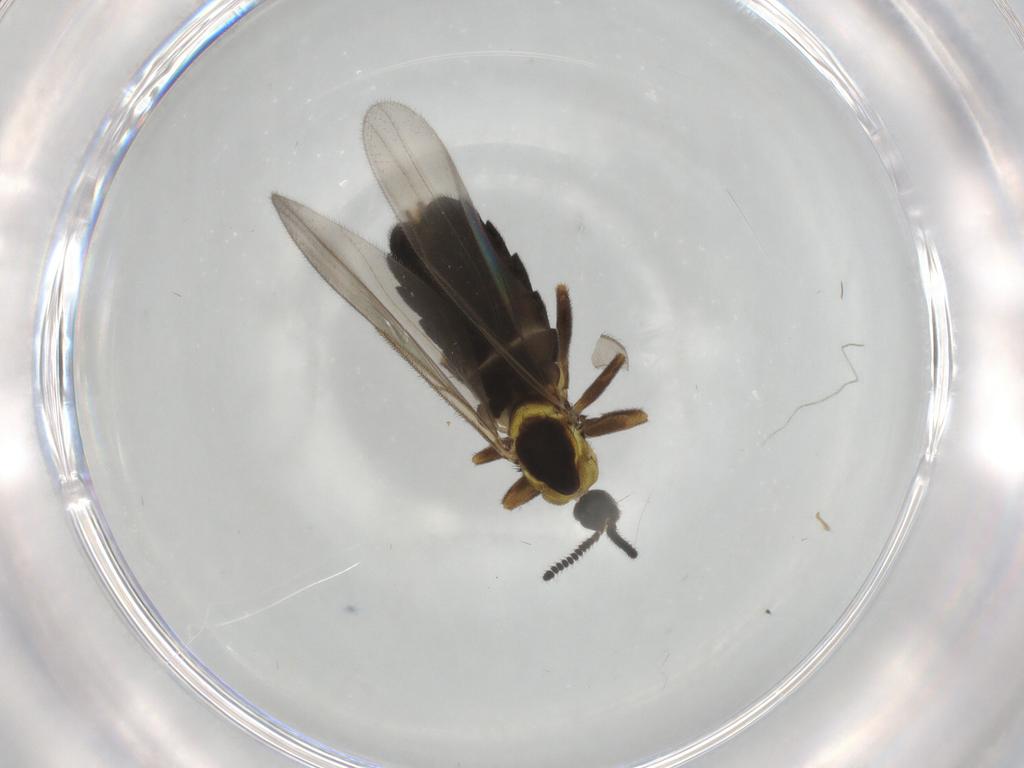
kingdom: Animalia
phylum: Arthropoda
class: Insecta
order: Diptera
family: Scatopsidae
